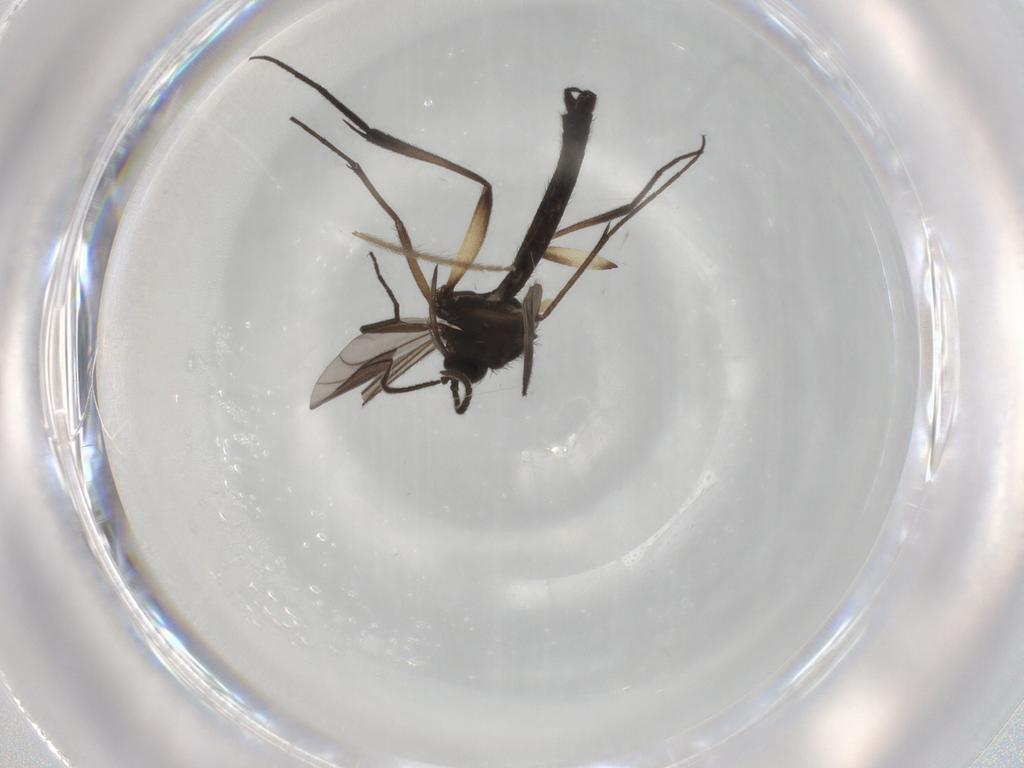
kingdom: Animalia
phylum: Arthropoda
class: Insecta
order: Diptera
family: Keroplatidae
